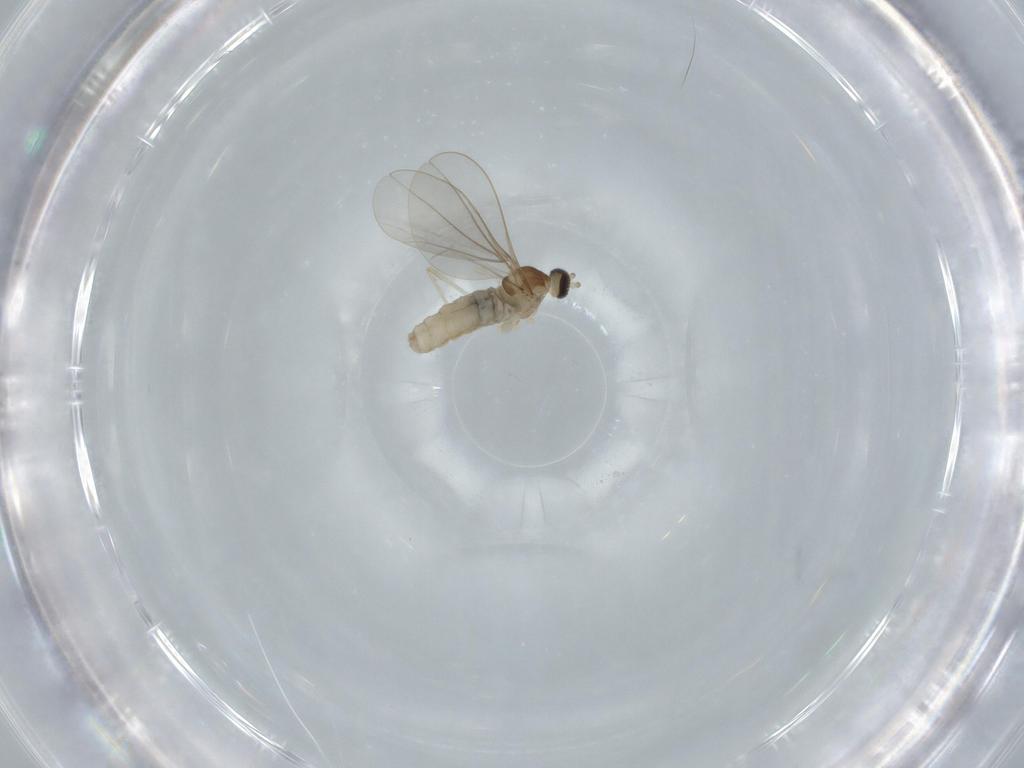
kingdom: Animalia
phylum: Arthropoda
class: Insecta
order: Diptera
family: Cecidomyiidae
